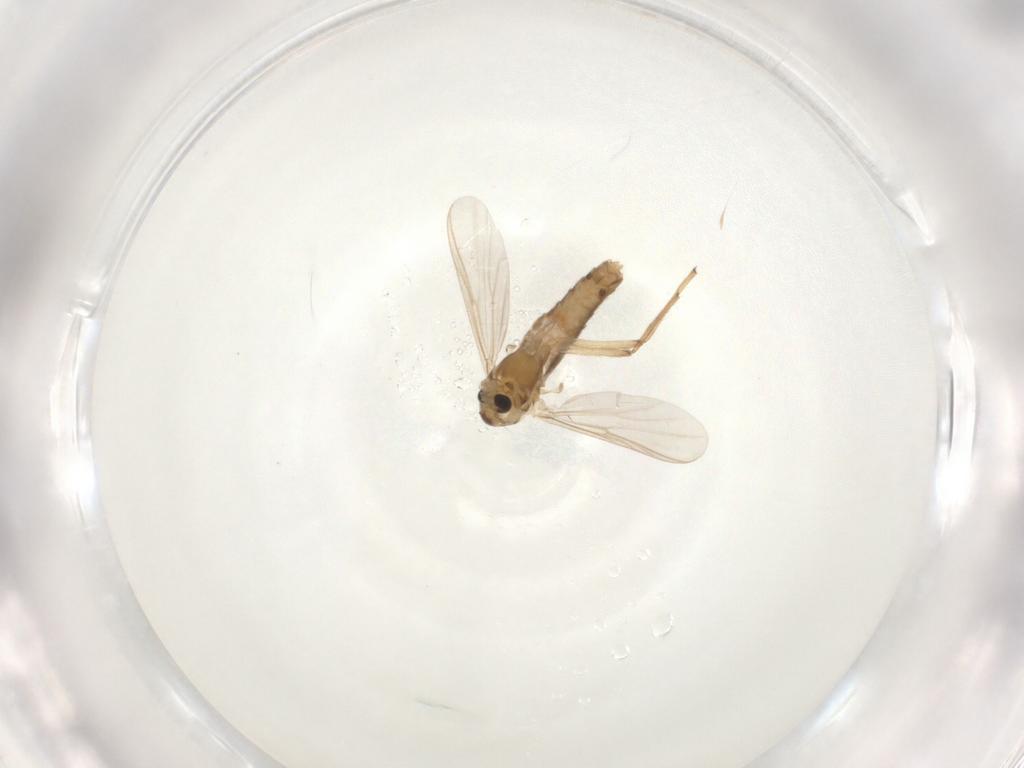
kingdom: Animalia
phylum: Arthropoda
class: Insecta
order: Diptera
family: Chironomidae
